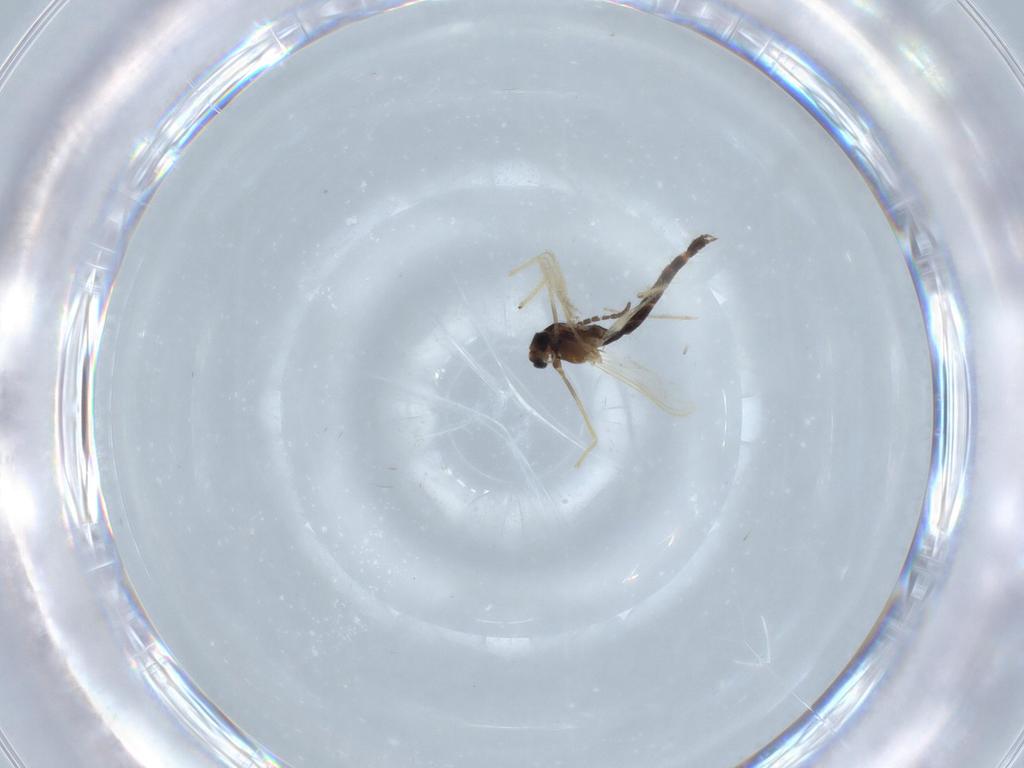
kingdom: Animalia
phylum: Arthropoda
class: Insecta
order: Diptera
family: Chironomidae
